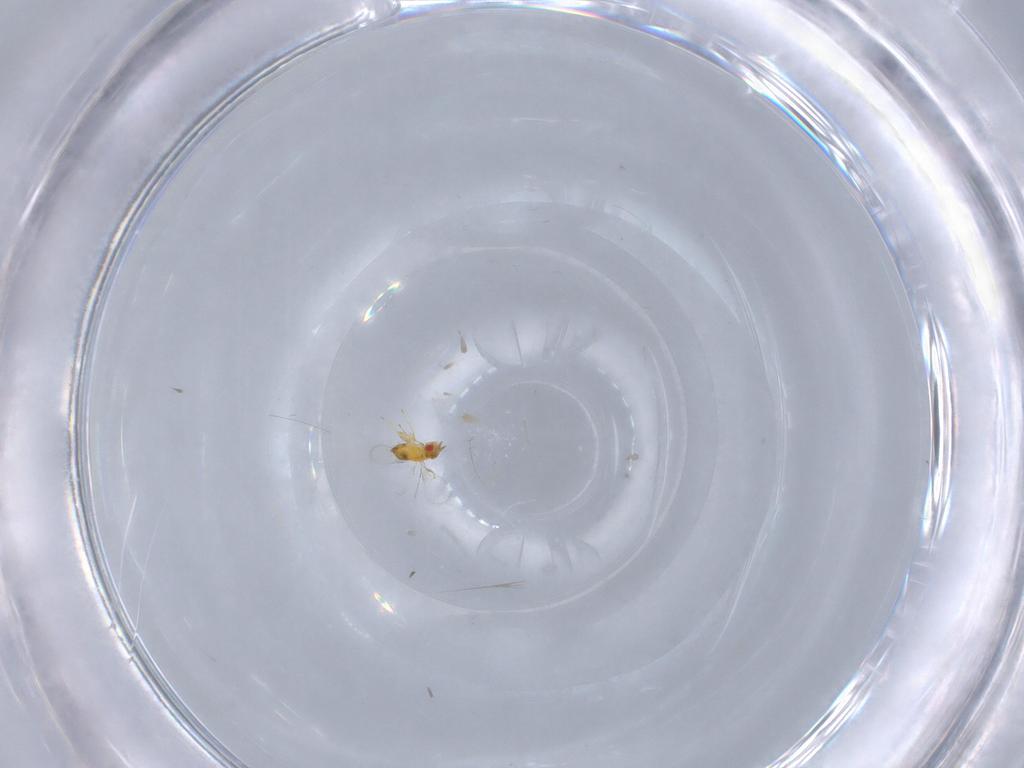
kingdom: Animalia
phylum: Arthropoda
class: Insecta
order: Hymenoptera
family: Trichogrammatidae
